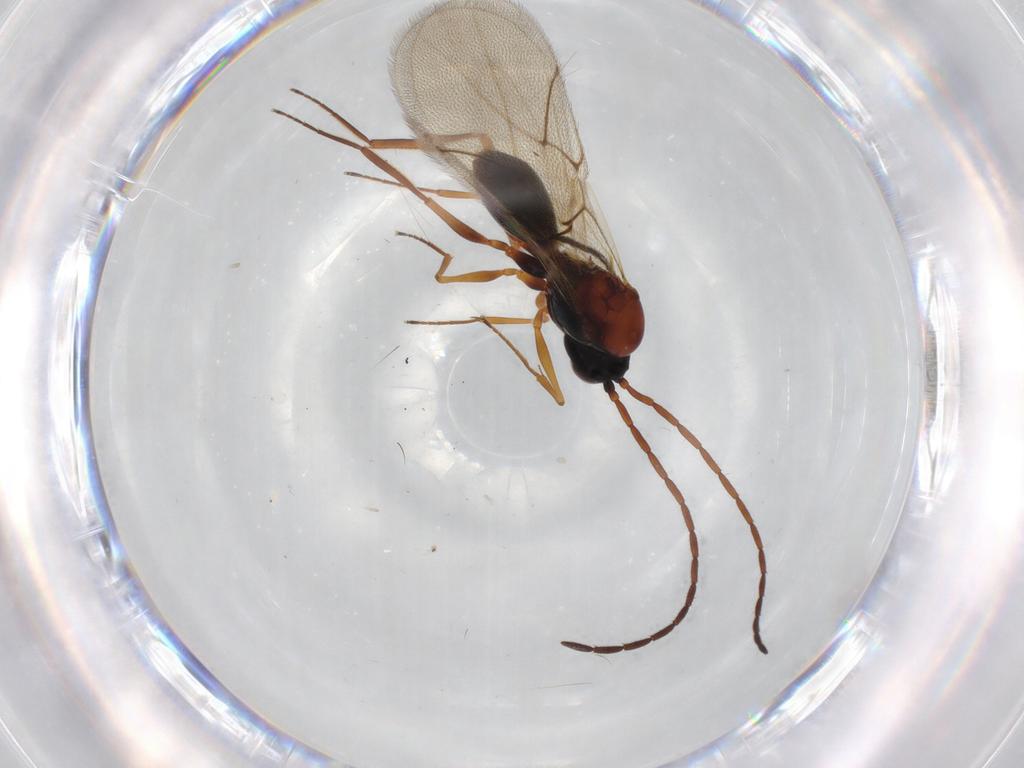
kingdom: Animalia
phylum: Arthropoda
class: Insecta
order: Hymenoptera
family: Figitidae
